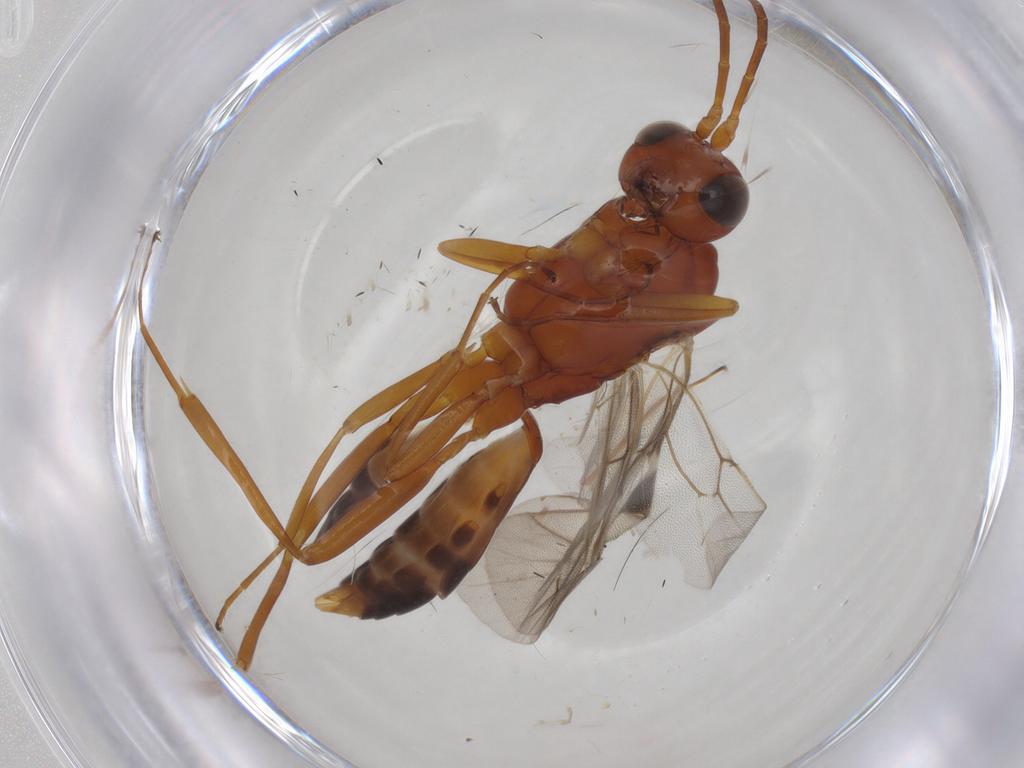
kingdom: Animalia
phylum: Arthropoda
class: Insecta
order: Hymenoptera
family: Ichneumonidae
